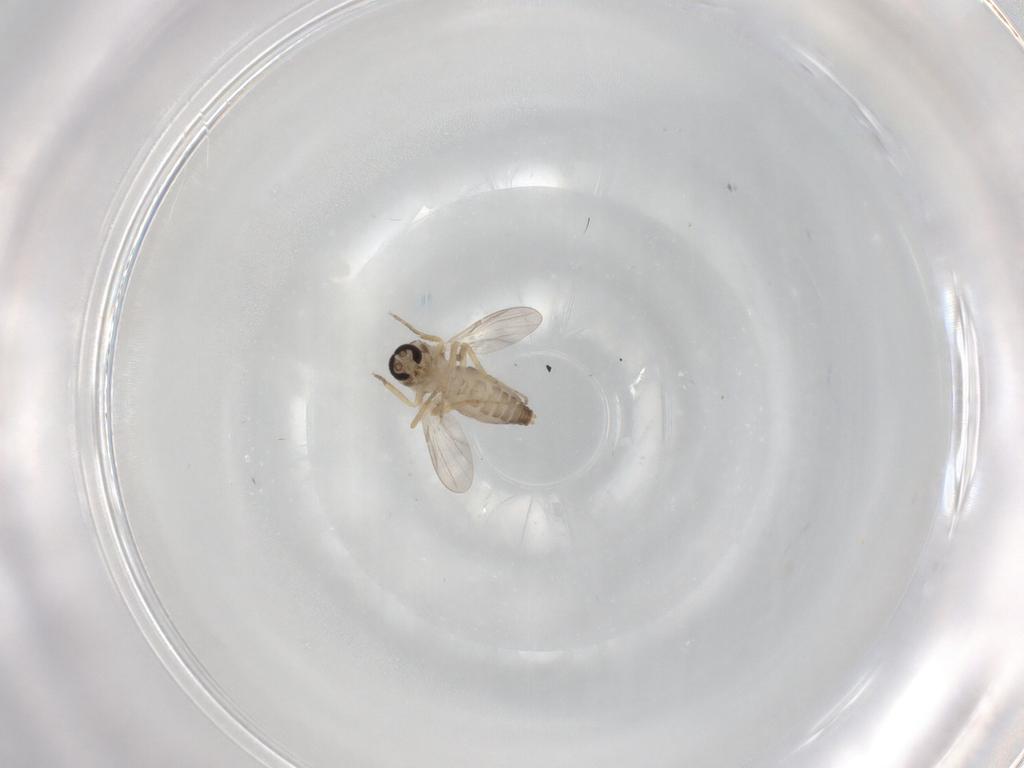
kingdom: Animalia
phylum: Arthropoda
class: Insecta
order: Diptera
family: Ceratopogonidae
